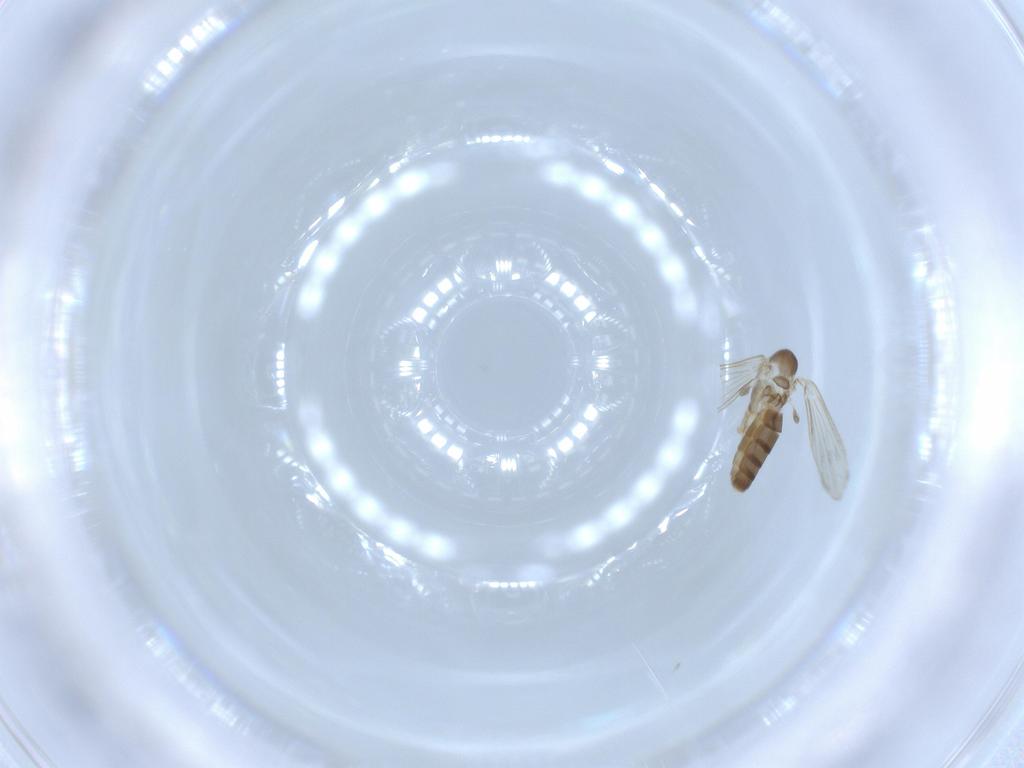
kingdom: Animalia
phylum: Arthropoda
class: Insecta
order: Diptera
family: Psychodidae
